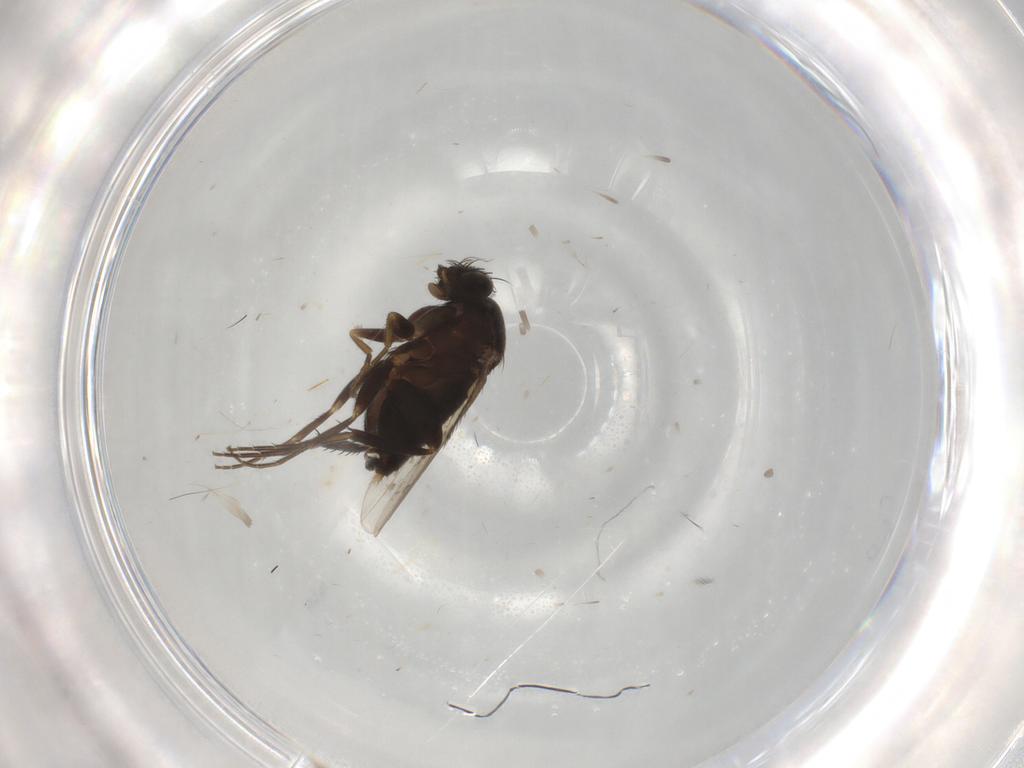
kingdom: Animalia
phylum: Arthropoda
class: Insecta
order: Diptera
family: Phoridae
